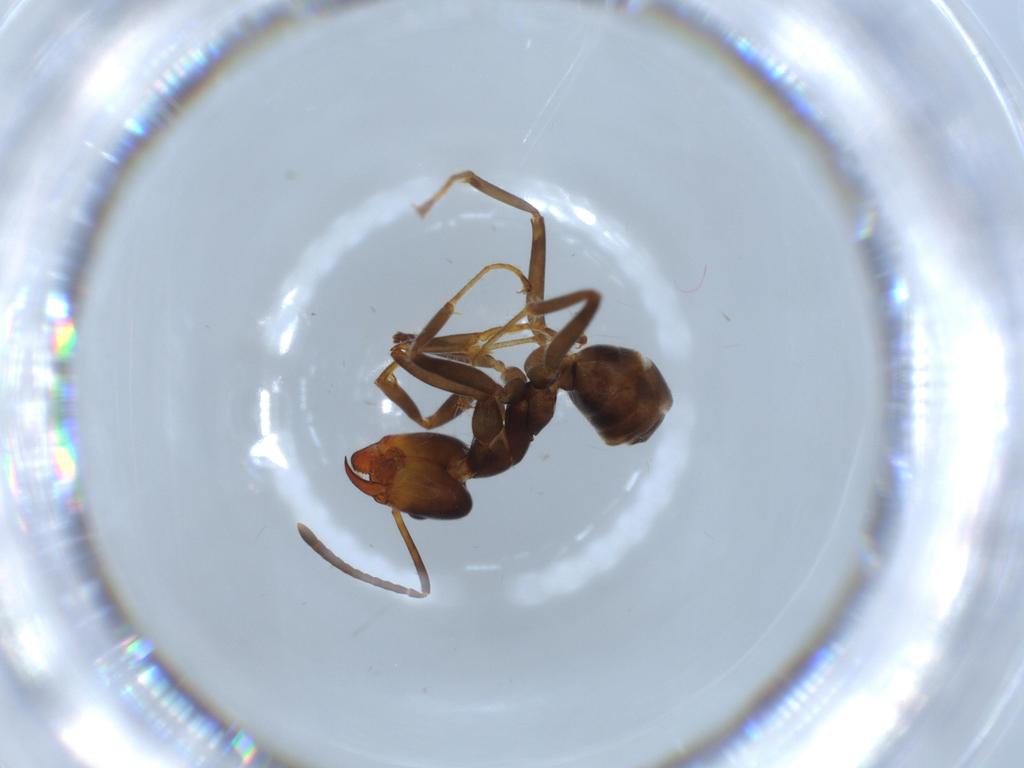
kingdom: Animalia
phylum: Arthropoda
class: Insecta
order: Hymenoptera
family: Formicidae
